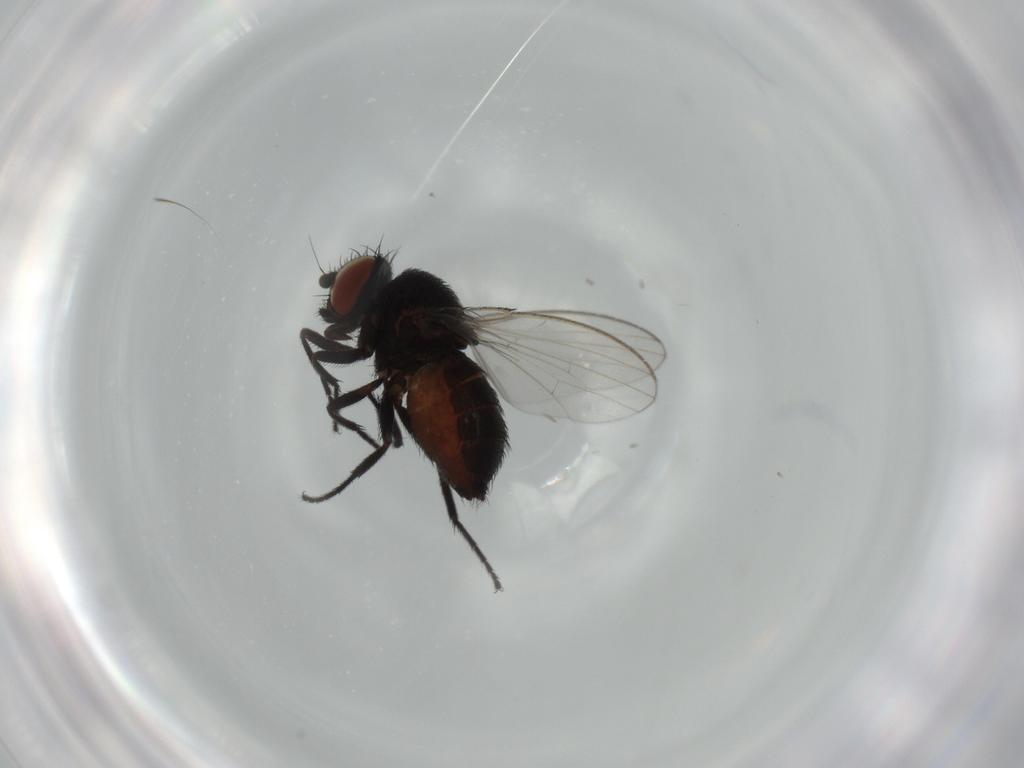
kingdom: Animalia
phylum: Arthropoda
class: Insecta
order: Diptera
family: Milichiidae
